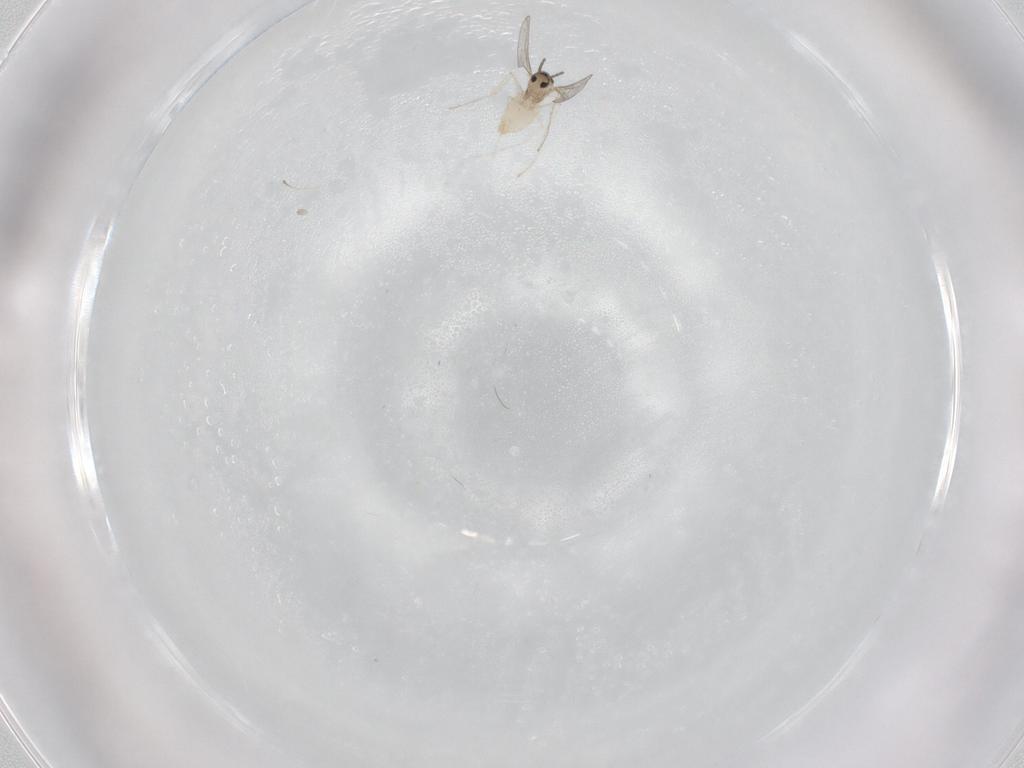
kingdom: Animalia
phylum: Arthropoda
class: Insecta
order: Diptera
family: Cecidomyiidae
